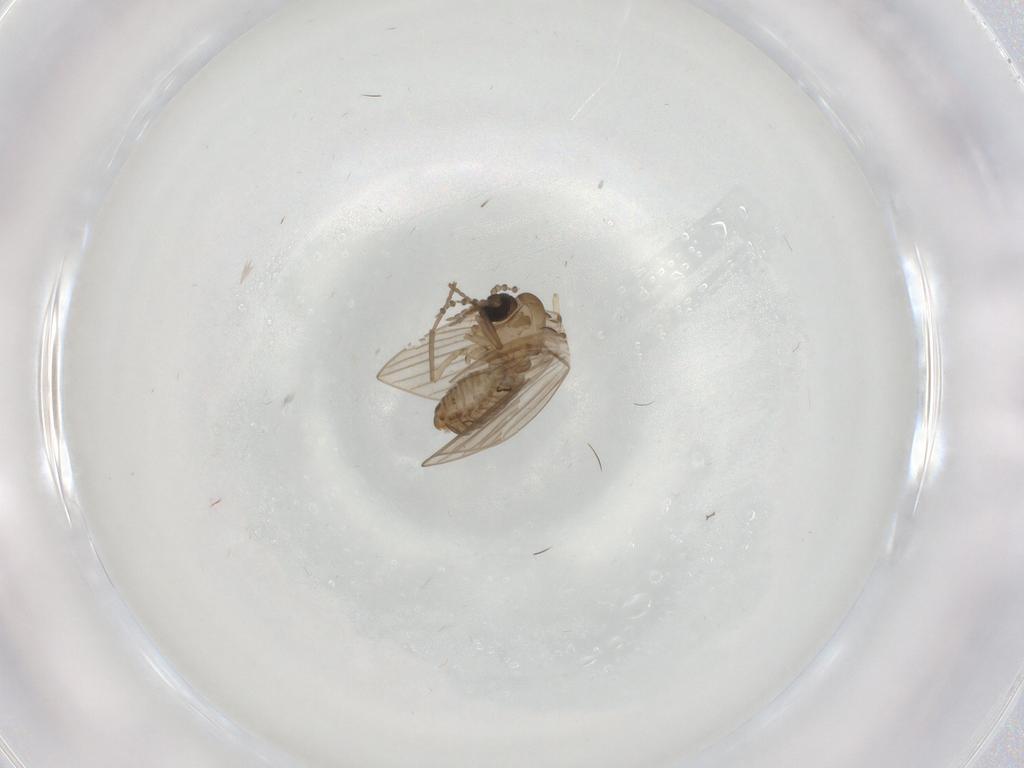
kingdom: Animalia
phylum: Arthropoda
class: Insecta
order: Diptera
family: Psychodidae
